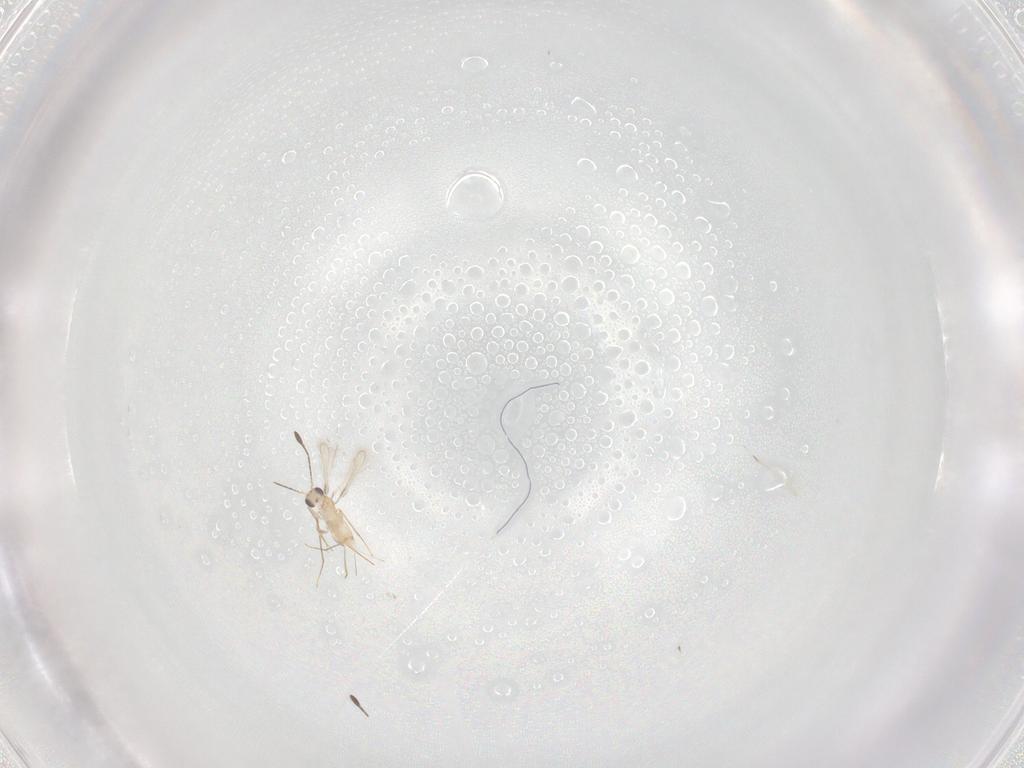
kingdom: Animalia
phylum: Arthropoda
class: Insecta
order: Hymenoptera
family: Mymaridae
